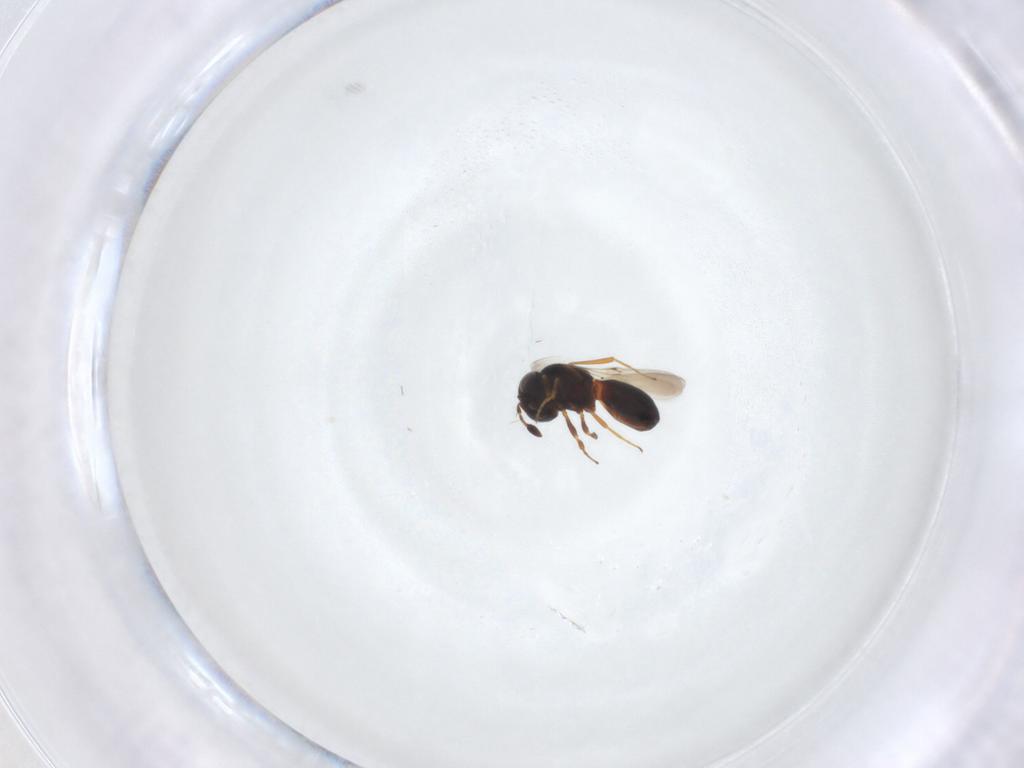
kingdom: Animalia
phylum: Arthropoda
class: Insecta
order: Hymenoptera
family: Scelionidae
